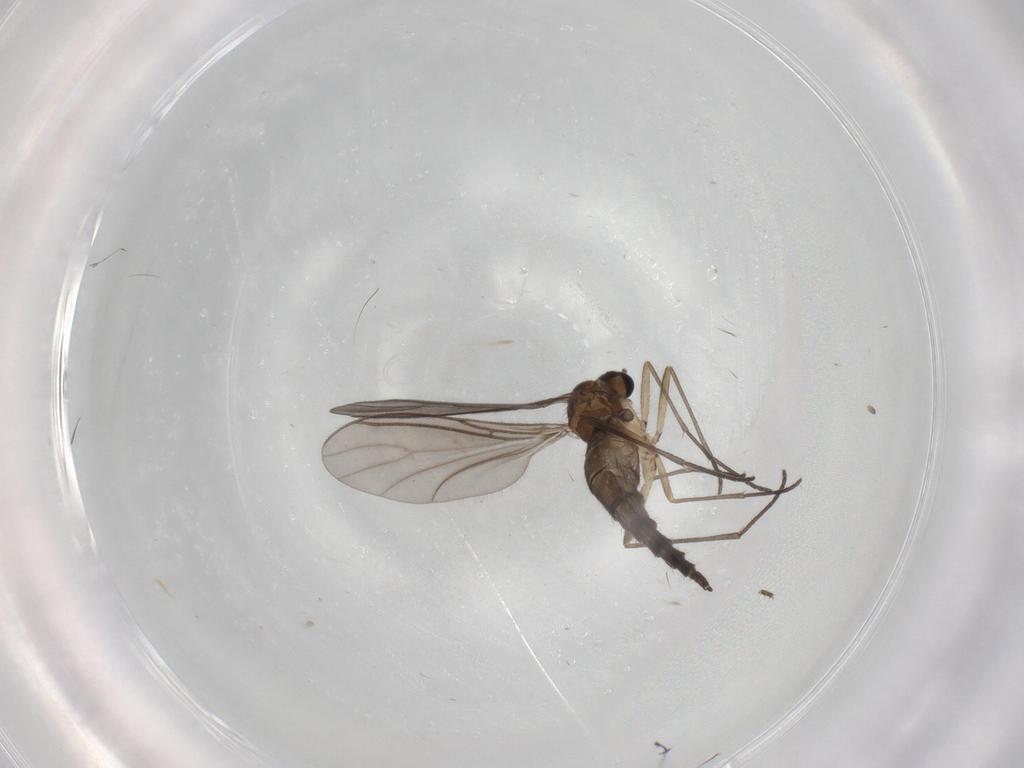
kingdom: Animalia
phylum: Arthropoda
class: Insecta
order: Diptera
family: Sciaridae
